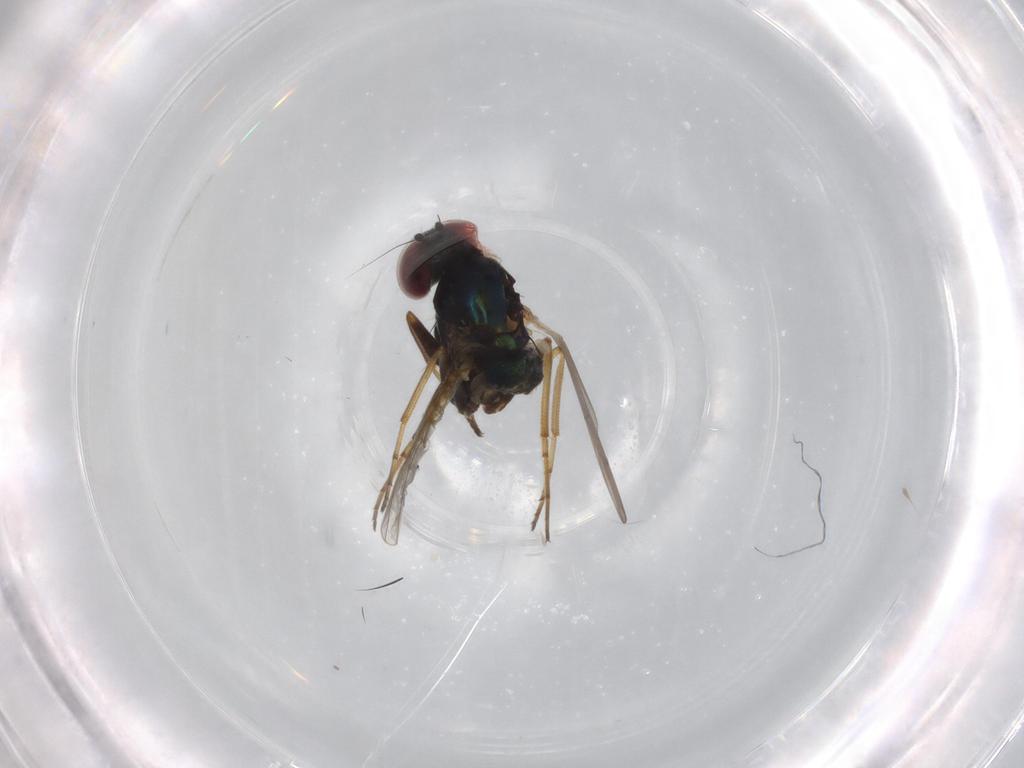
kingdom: Animalia
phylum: Arthropoda
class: Insecta
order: Diptera
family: Dolichopodidae
